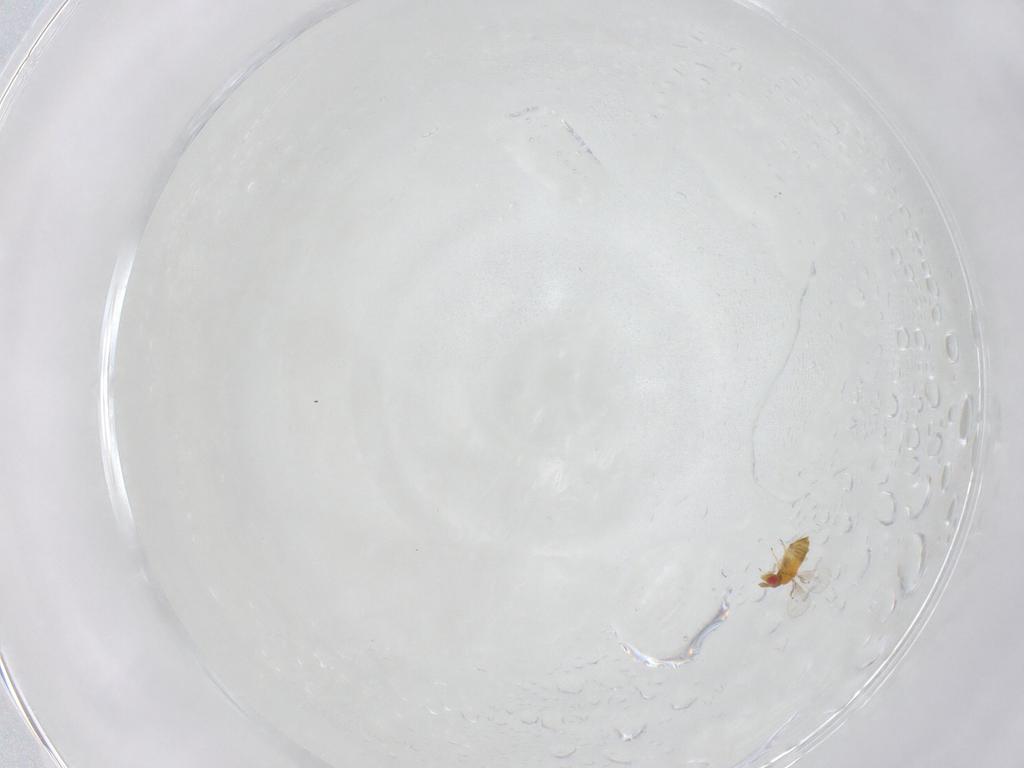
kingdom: Animalia
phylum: Arthropoda
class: Insecta
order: Hymenoptera
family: Trichogrammatidae
